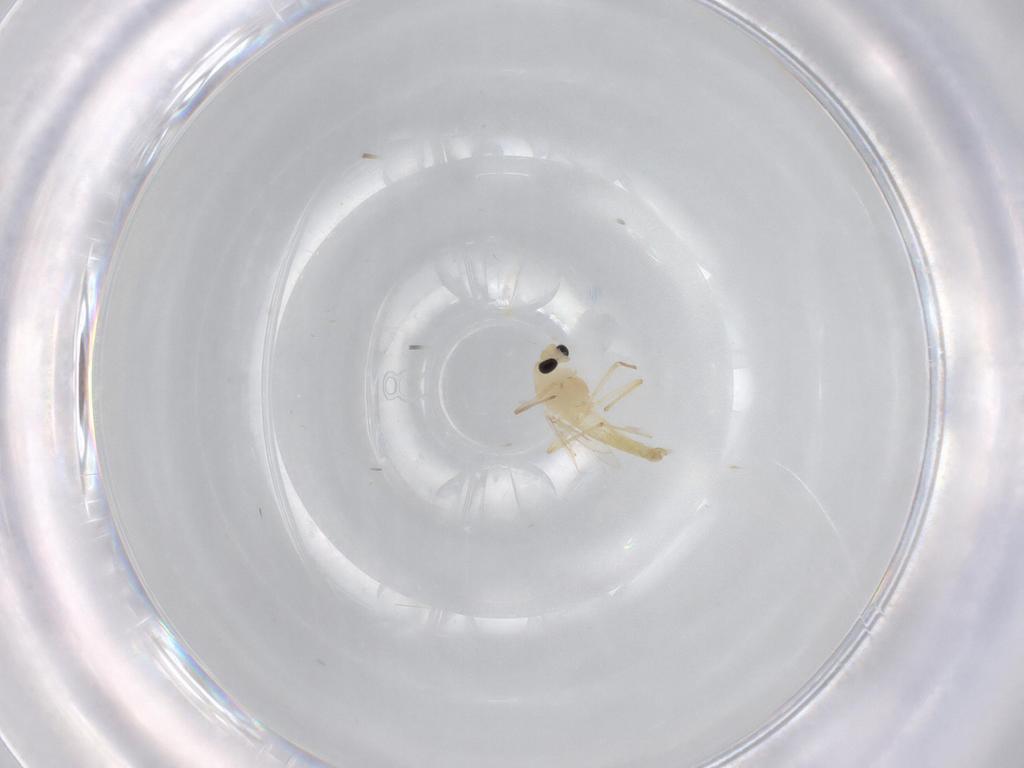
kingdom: Animalia
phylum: Arthropoda
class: Insecta
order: Diptera
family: Chironomidae
